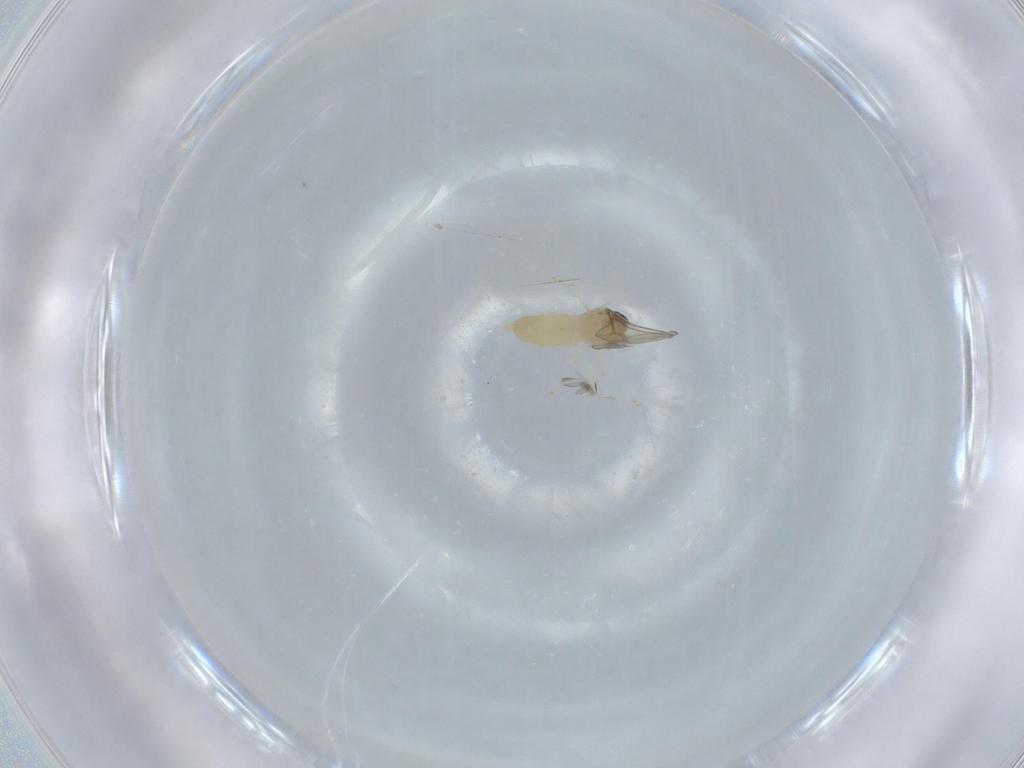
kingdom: Animalia
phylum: Arthropoda
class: Insecta
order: Diptera
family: Cecidomyiidae
